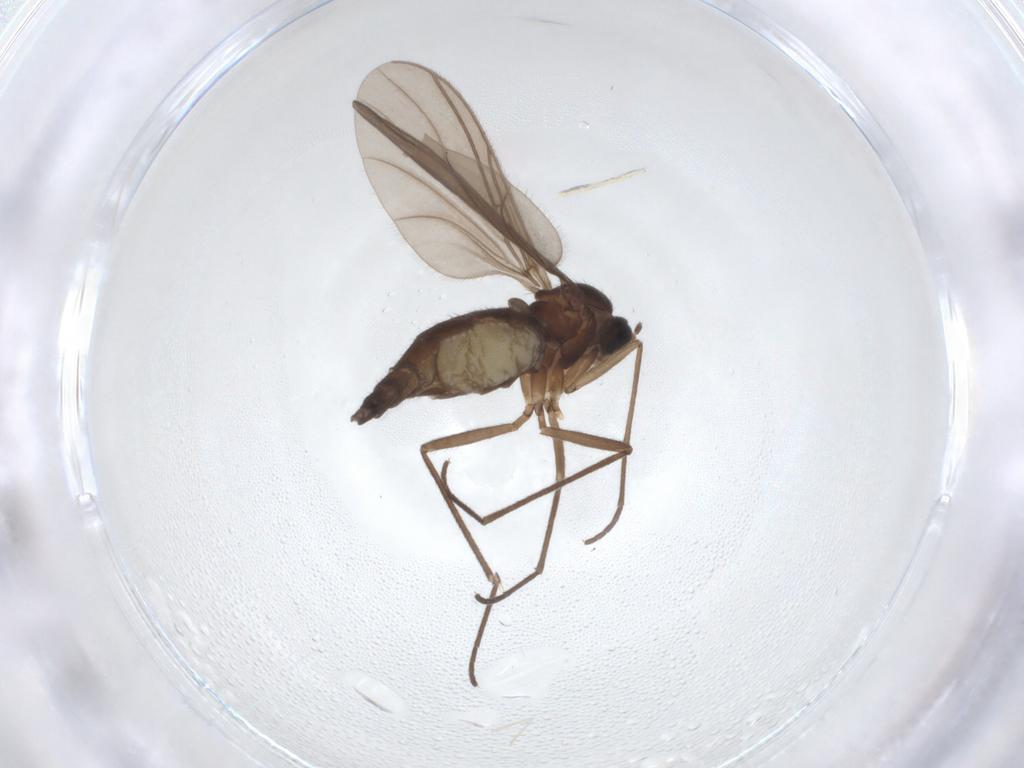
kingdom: Animalia
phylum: Arthropoda
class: Insecta
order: Diptera
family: Sciaridae
